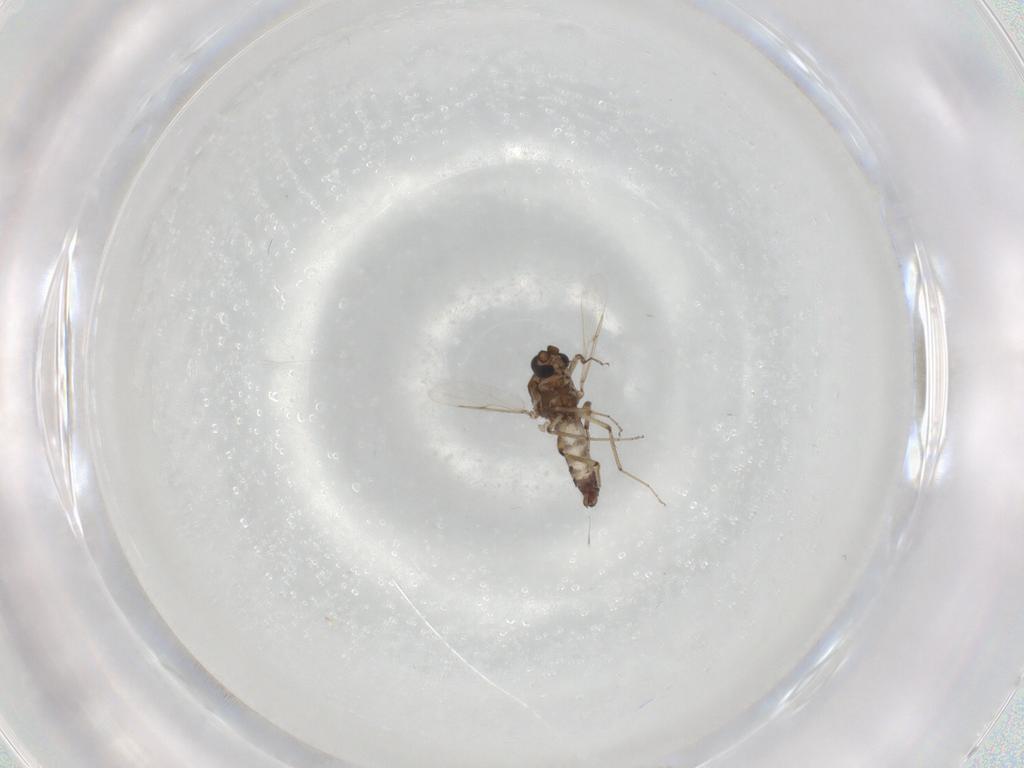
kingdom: Animalia
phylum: Arthropoda
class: Insecta
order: Diptera
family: Ceratopogonidae
